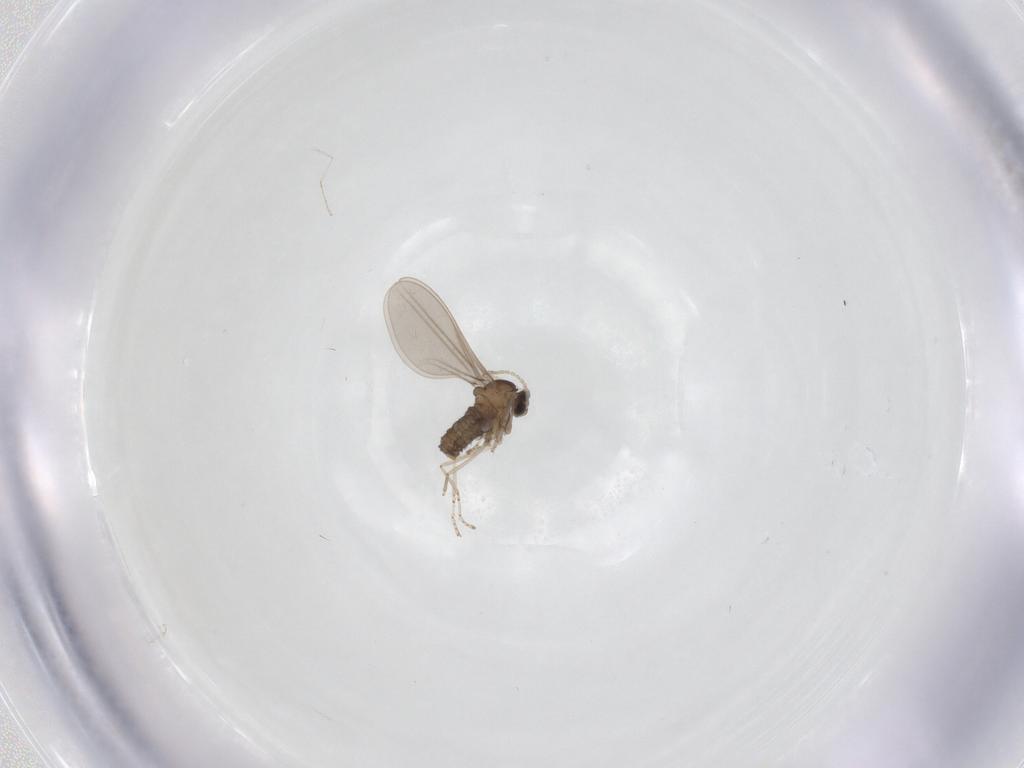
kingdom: Animalia
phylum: Arthropoda
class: Insecta
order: Diptera
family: Cecidomyiidae
